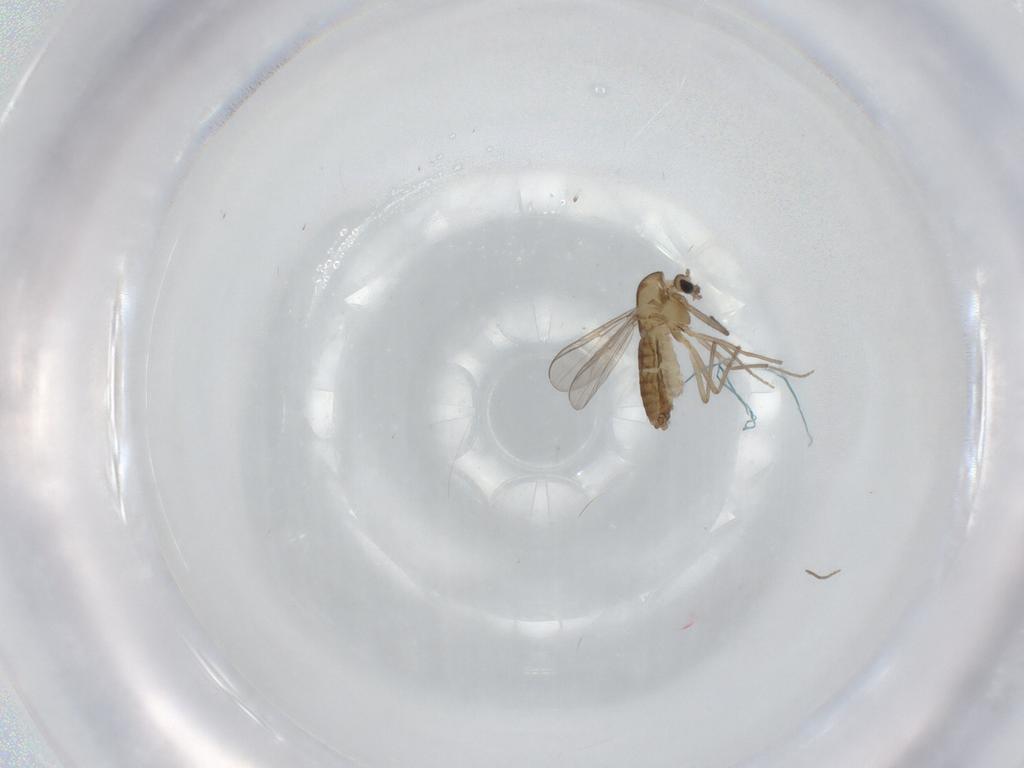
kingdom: Animalia
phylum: Arthropoda
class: Insecta
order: Diptera
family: Chironomidae
